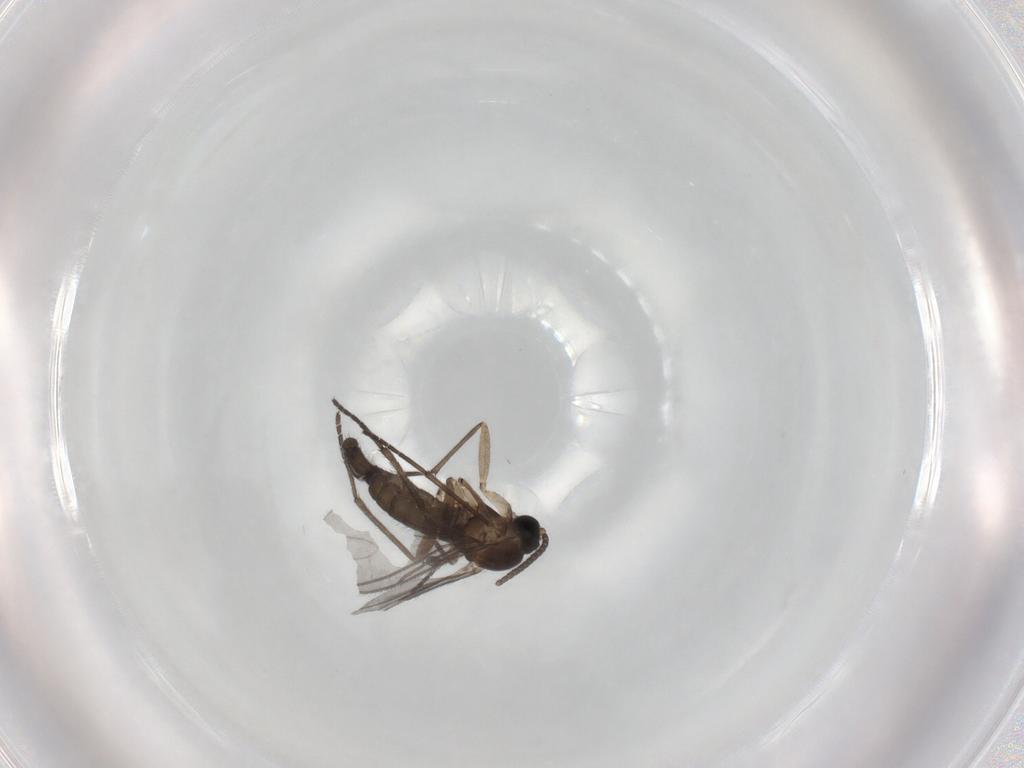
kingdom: Animalia
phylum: Arthropoda
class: Insecta
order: Diptera
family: Sciaridae
